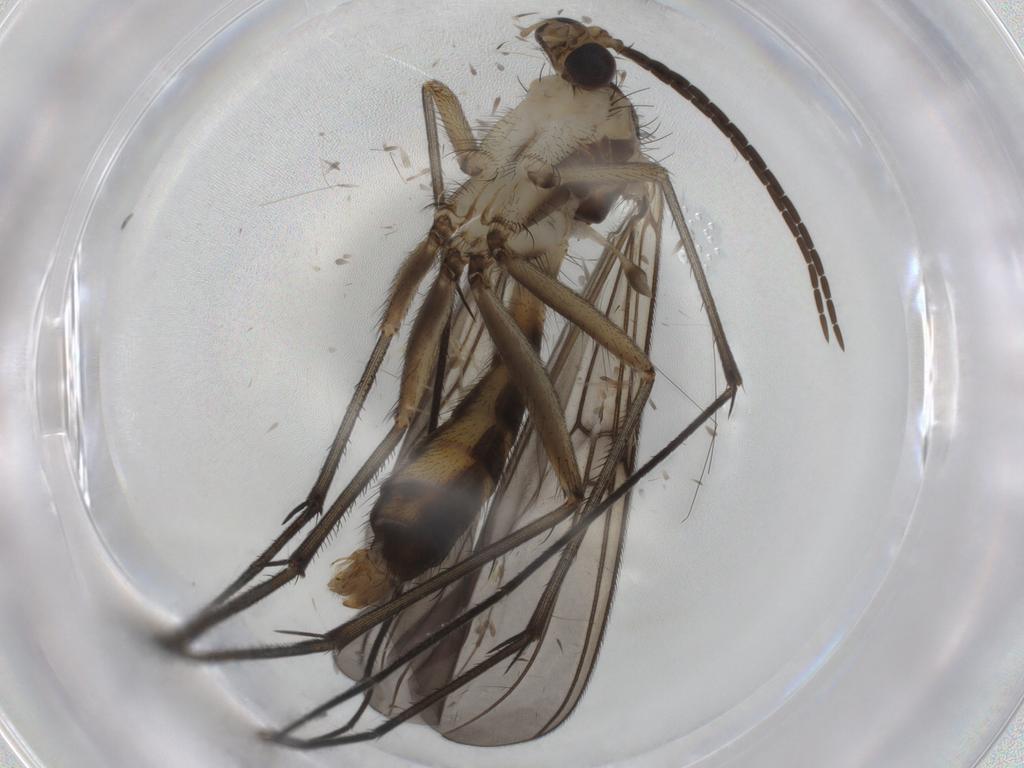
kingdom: Animalia
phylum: Arthropoda
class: Insecta
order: Diptera
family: Mycetophilidae
